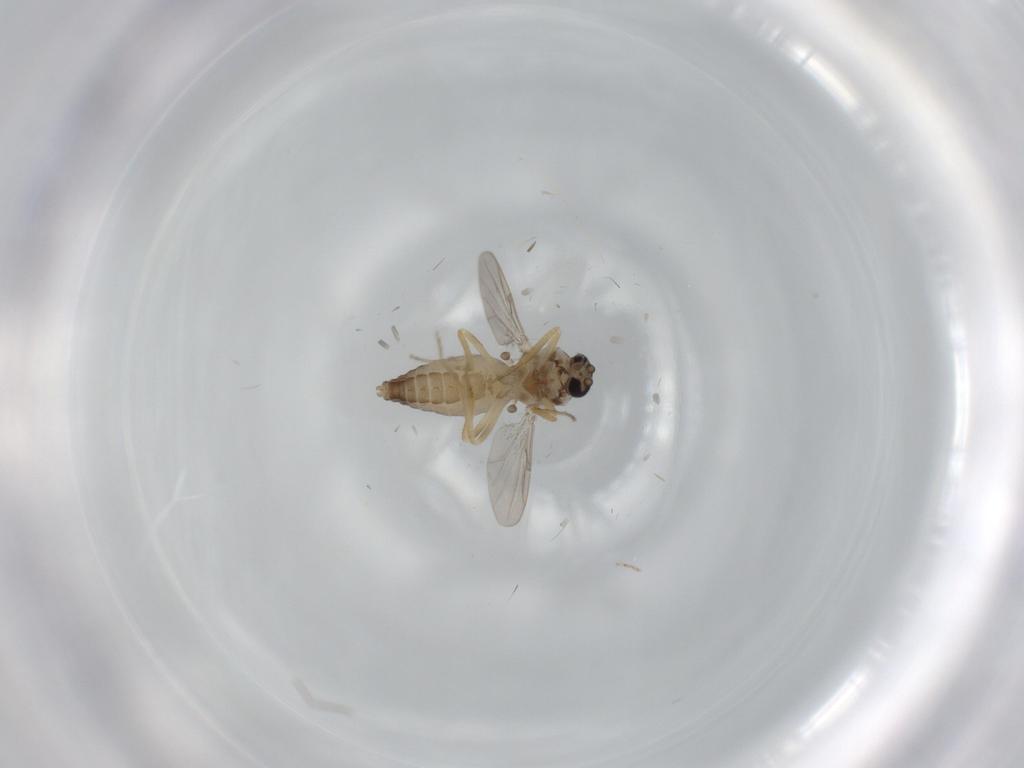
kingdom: Animalia
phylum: Arthropoda
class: Insecta
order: Diptera
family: Ceratopogonidae
